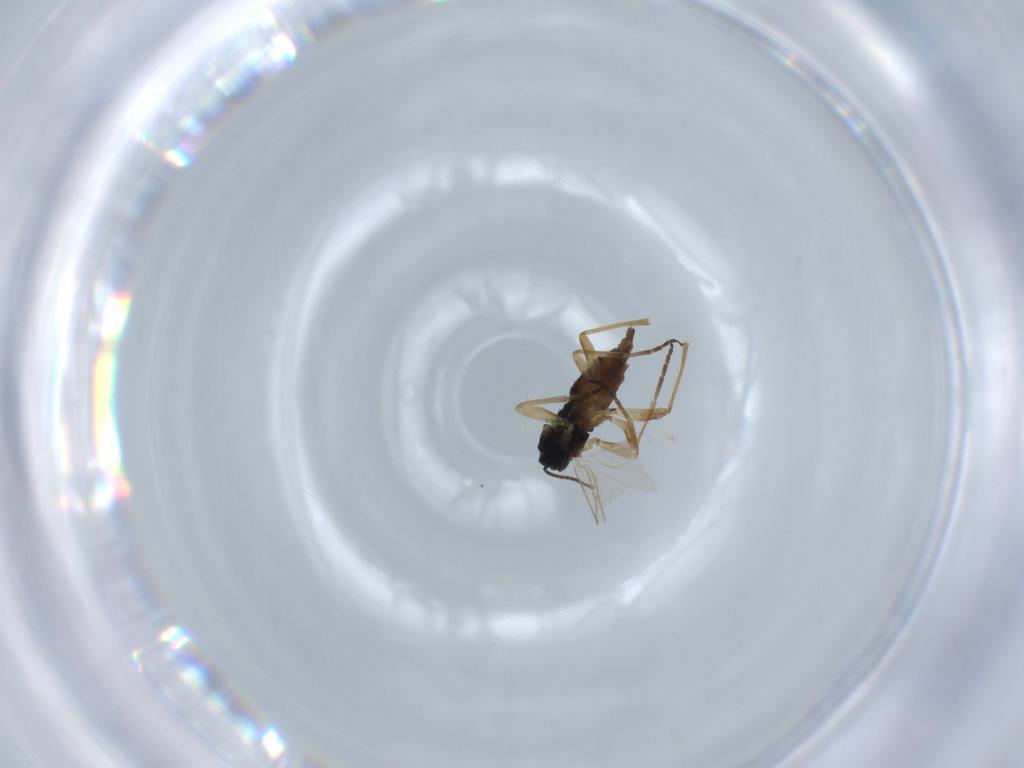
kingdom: Animalia
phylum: Arthropoda
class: Insecta
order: Diptera
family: Sciaridae
